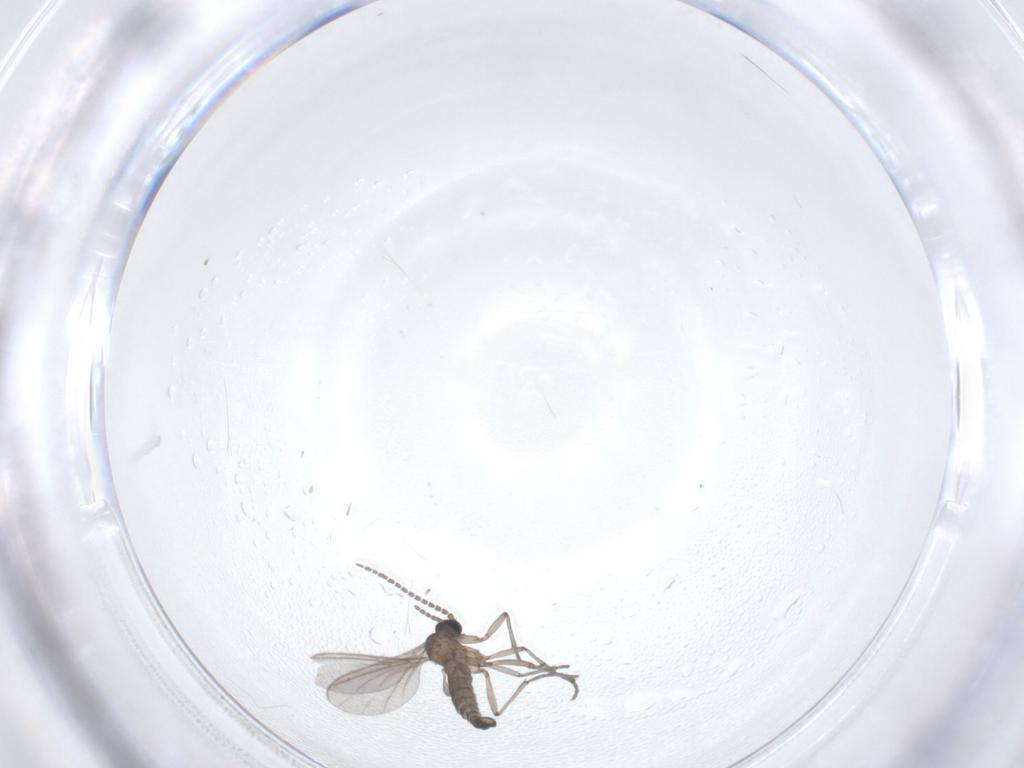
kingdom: Animalia
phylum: Arthropoda
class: Insecta
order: Diptera
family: Sciaridae
